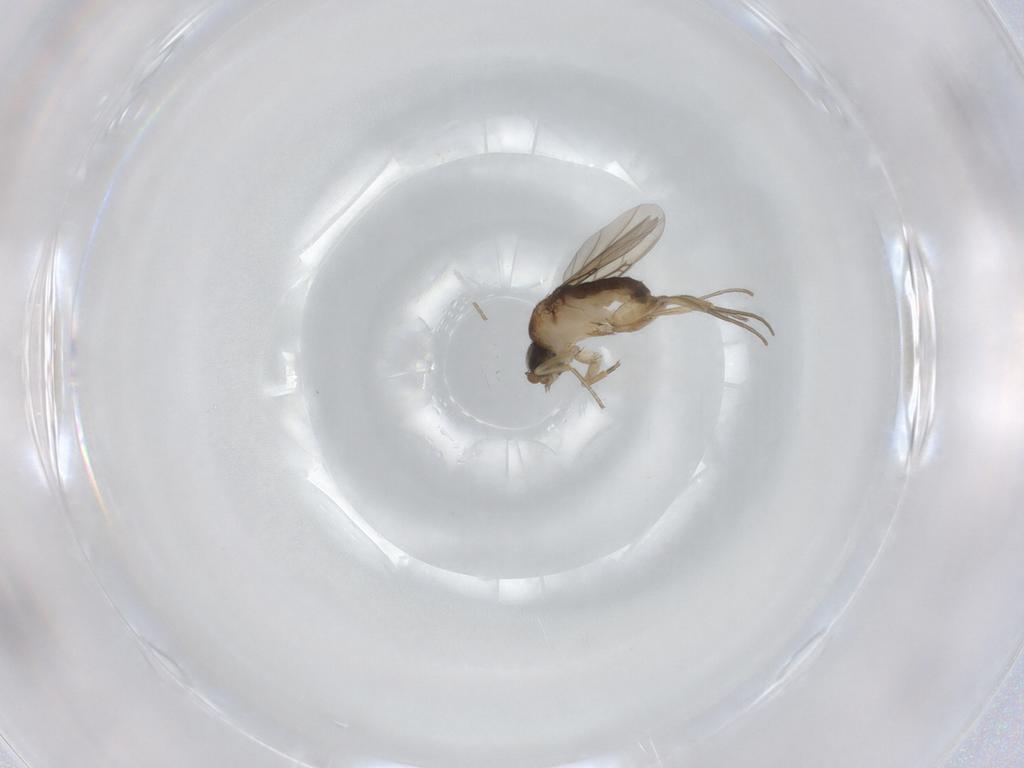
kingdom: Animalia
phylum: Arthropoda
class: Insecta
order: Diptera
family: Phoridae
